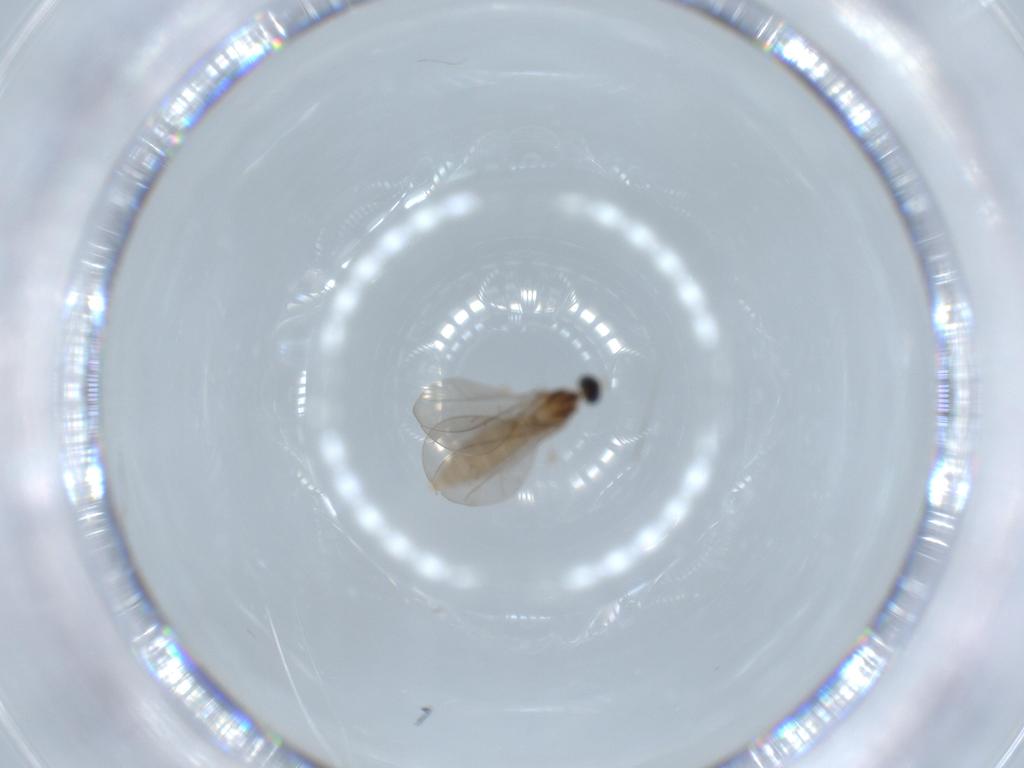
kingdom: Animalia
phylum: Arthropoda
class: Insecta
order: Diptera
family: Cecidomyiidae
